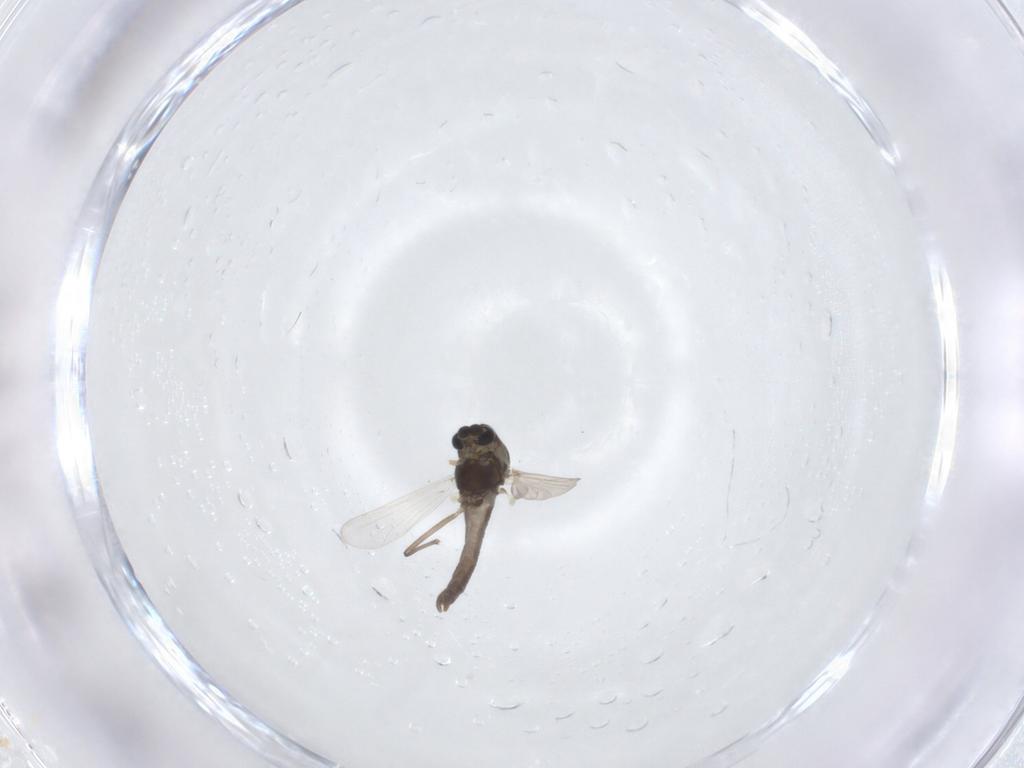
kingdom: Animalia
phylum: Arthropoda
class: Insecta
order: Diptera
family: Chironomidae
